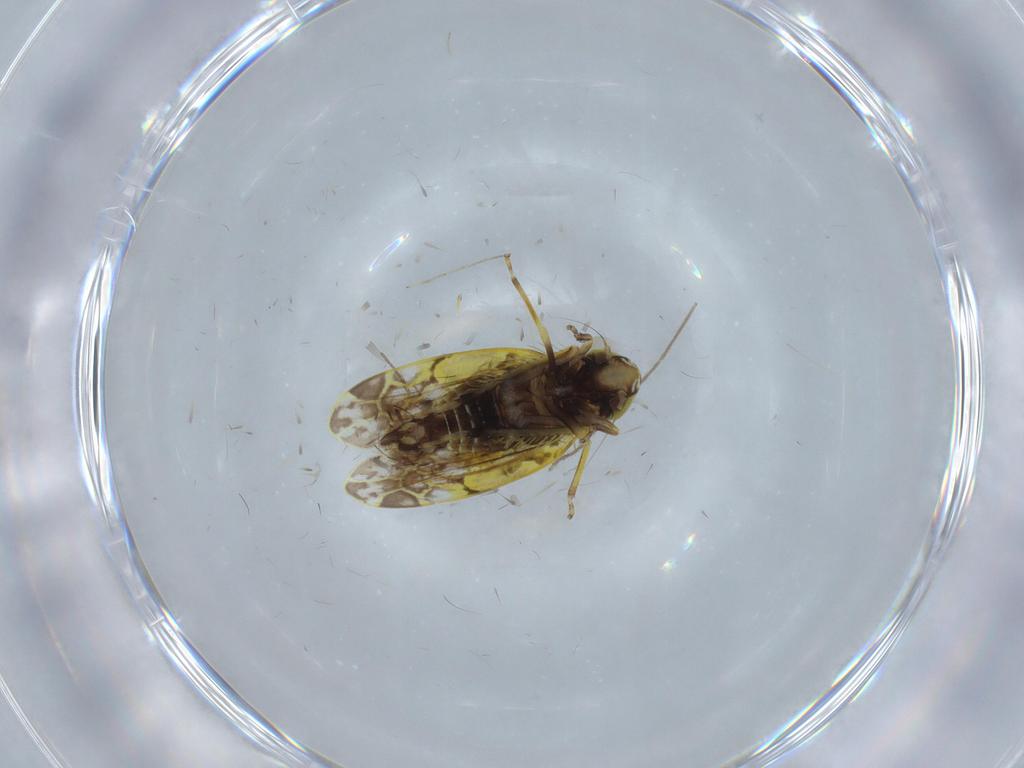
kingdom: Animalia
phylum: Arthropoda
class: Insecta
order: Hemiptera
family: Cicadellidae
